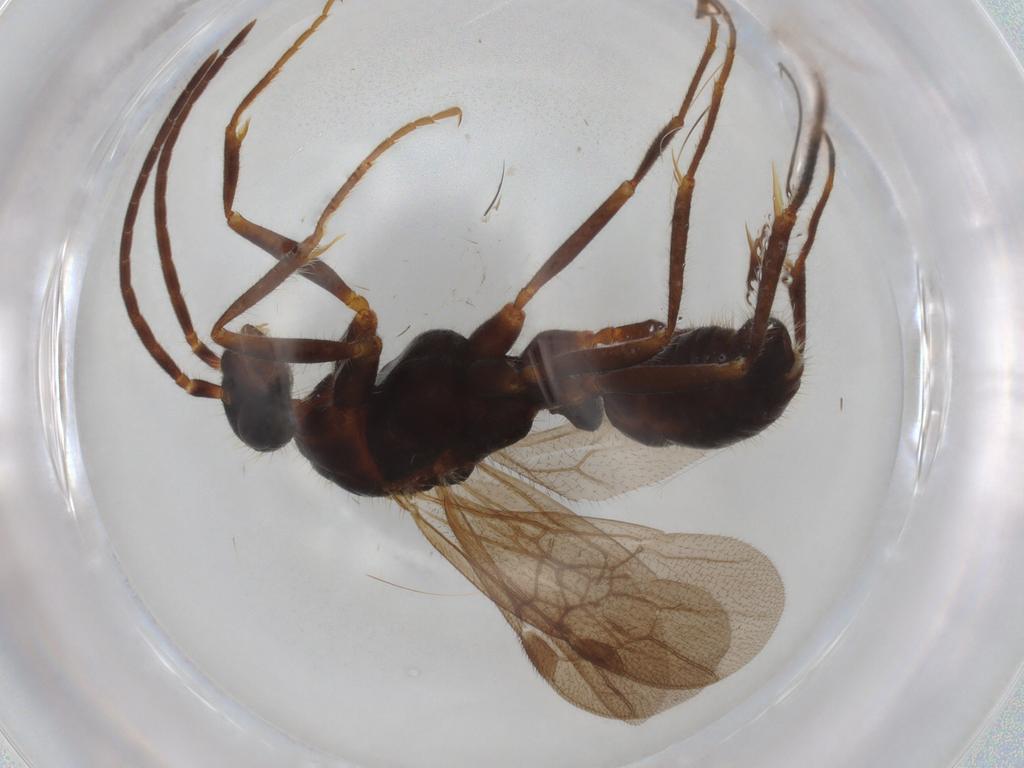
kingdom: Animalia
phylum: Arthropoda
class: Insecta
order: Hymenoptera
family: Formicidae
